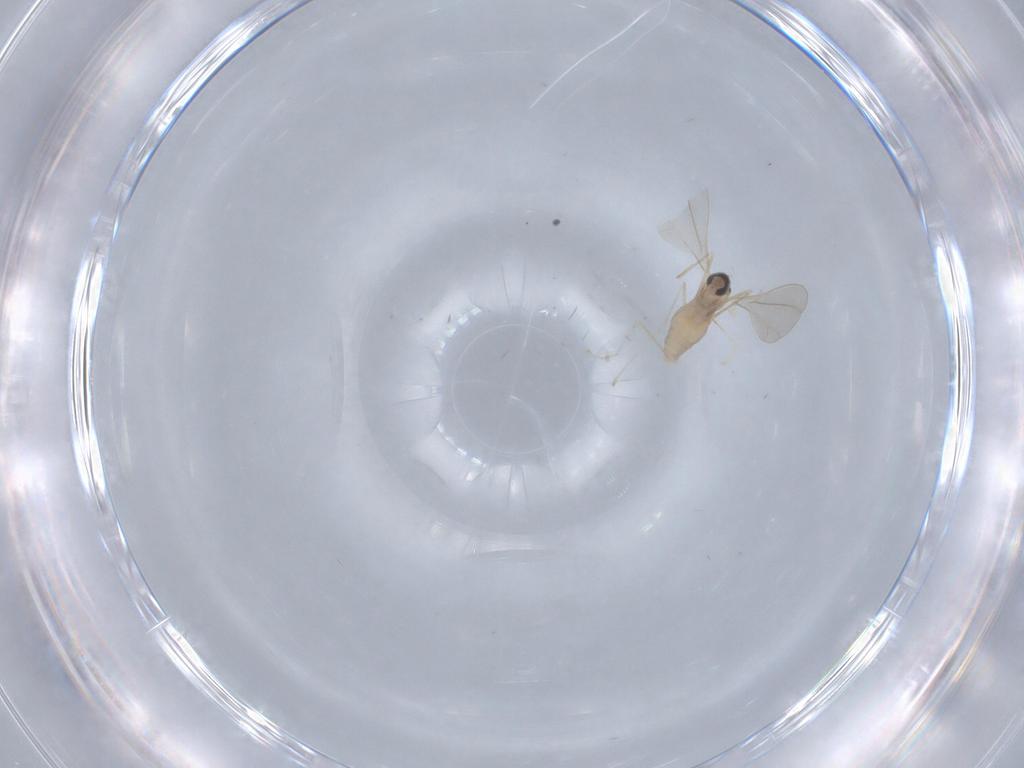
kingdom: Animalia
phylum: Arthropoda
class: Insecta
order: Diptera
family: Cecidomyiidae
